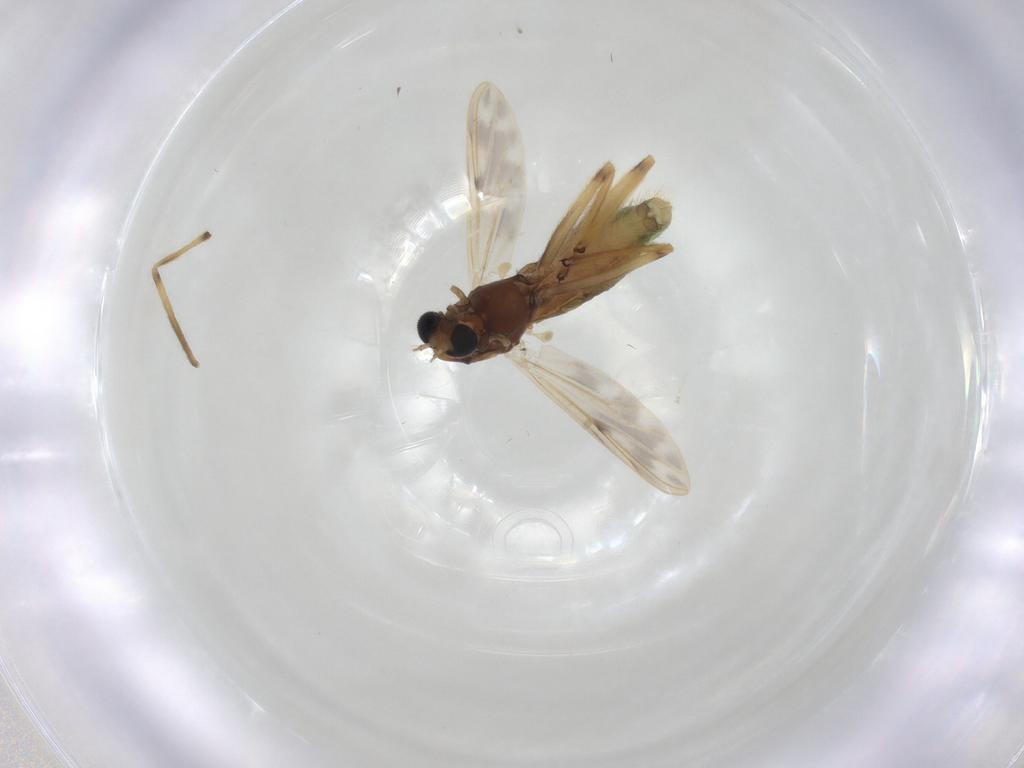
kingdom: Animalia
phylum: Arthropoda
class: Insecta
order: Diptera
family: Chironomidae
